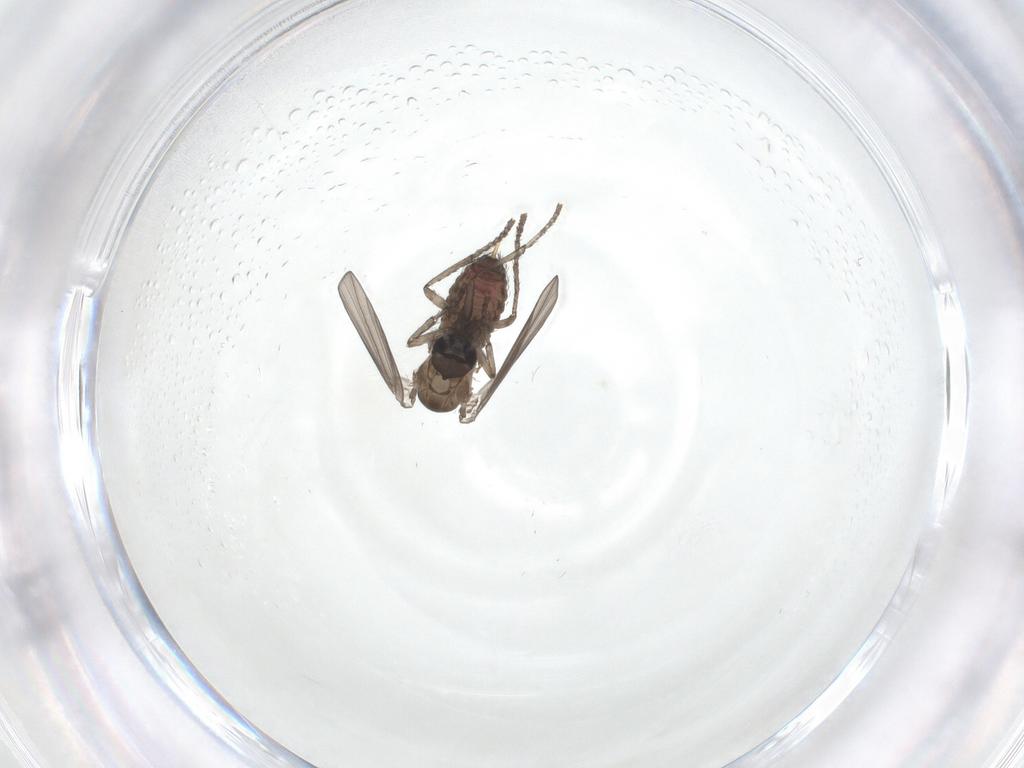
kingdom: Animalia
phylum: Arthropoda
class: Insecta
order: Diptera
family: Psychodidae
